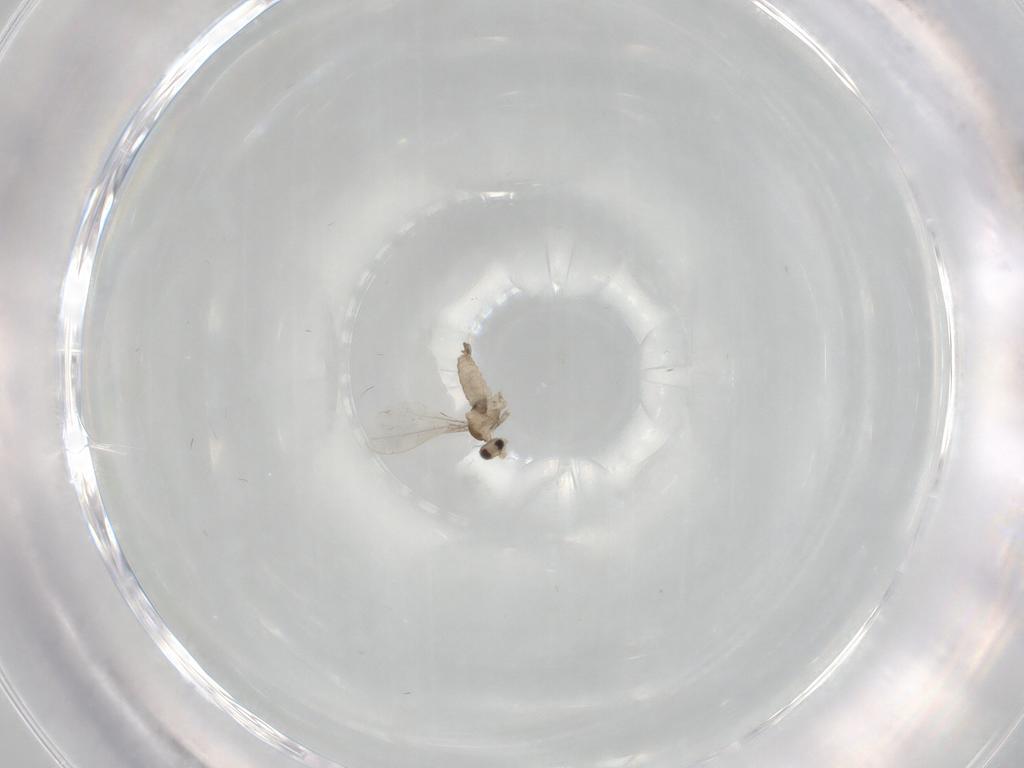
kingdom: Animalia
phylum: Arthropoda
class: Insecta
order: Diptera
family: Cecidomyiidae
